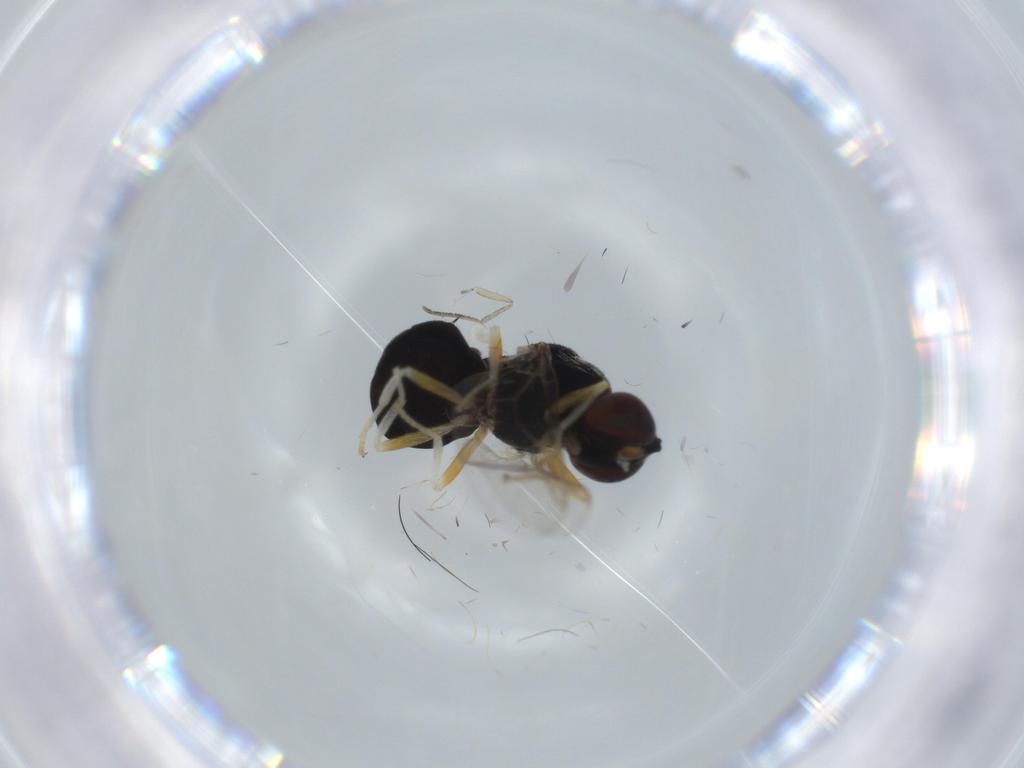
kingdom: Animalia
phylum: Arthropoda
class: Insecta
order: Diptera
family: Stratiomyidae
